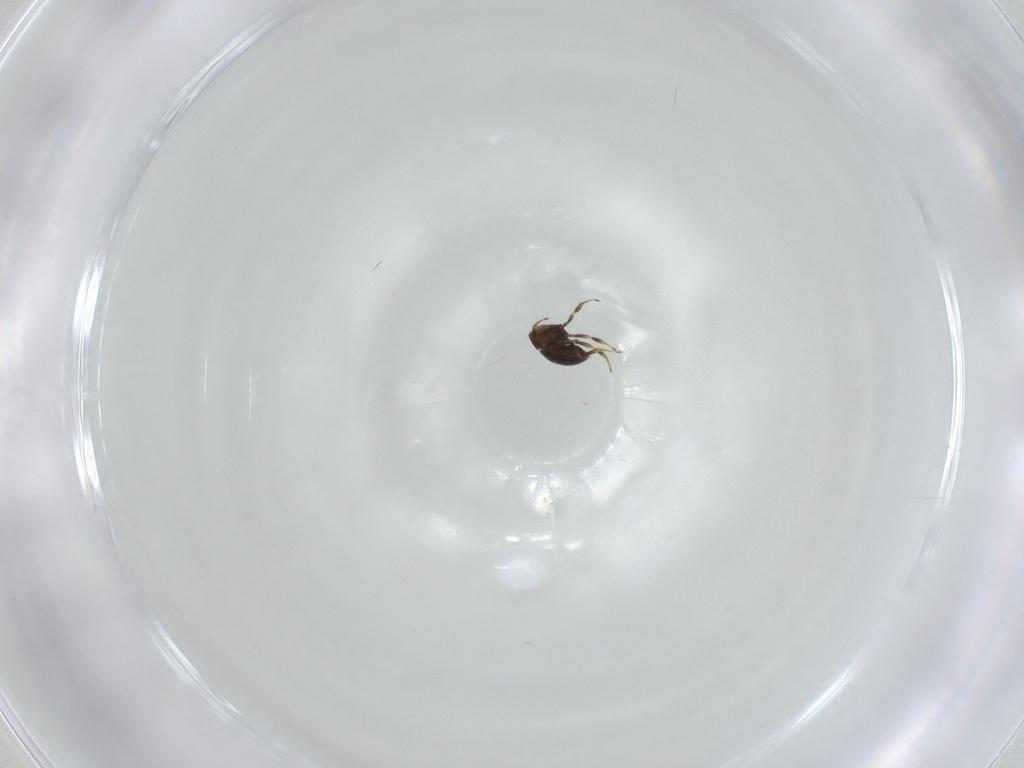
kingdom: Animalia
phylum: Arthropoda
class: Insecta
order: Hymenoptera
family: Scelionidae
